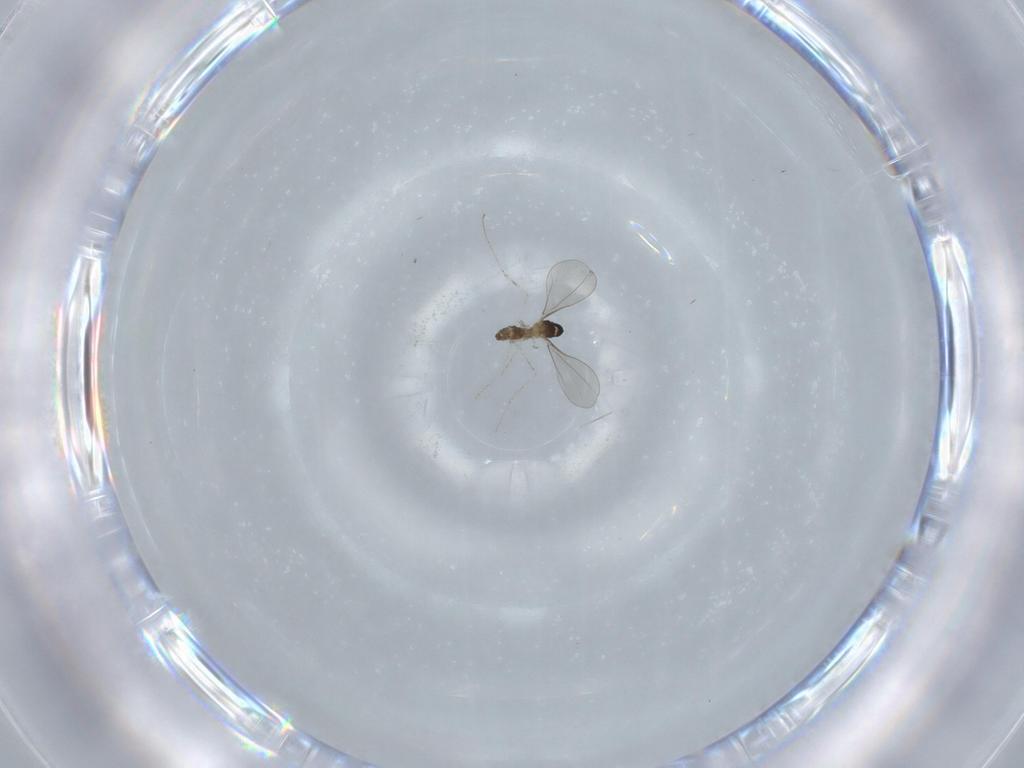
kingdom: Animalia
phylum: Arthropoda
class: Insecta
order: Diptera
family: Cecidomyiidae
